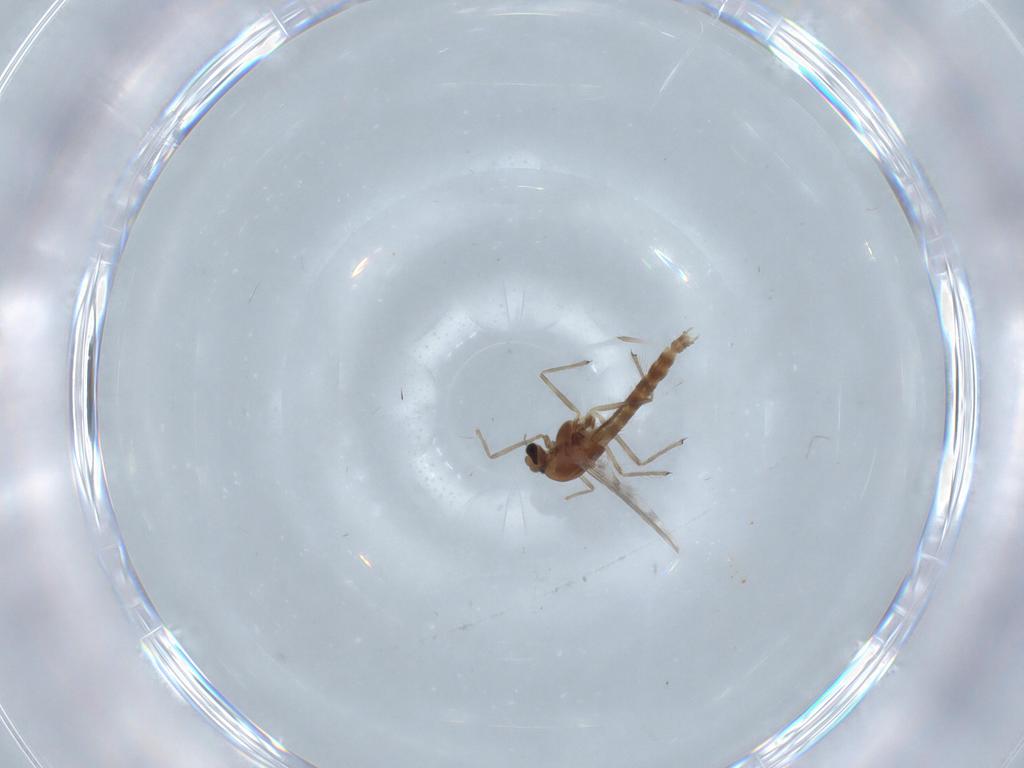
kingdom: Animalia
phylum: Arthropoda
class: Insecta
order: Diptera
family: Chironomidae
